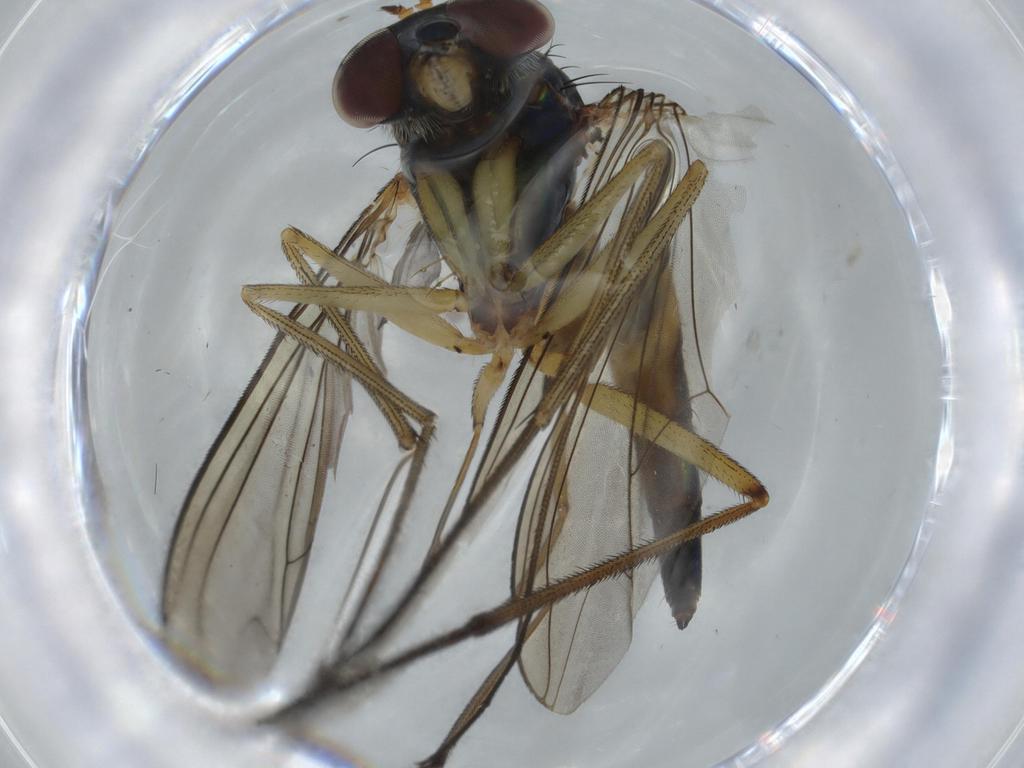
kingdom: Animalia
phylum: Arthropoda
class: Insecta
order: Diptera
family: Dolichopodidae
